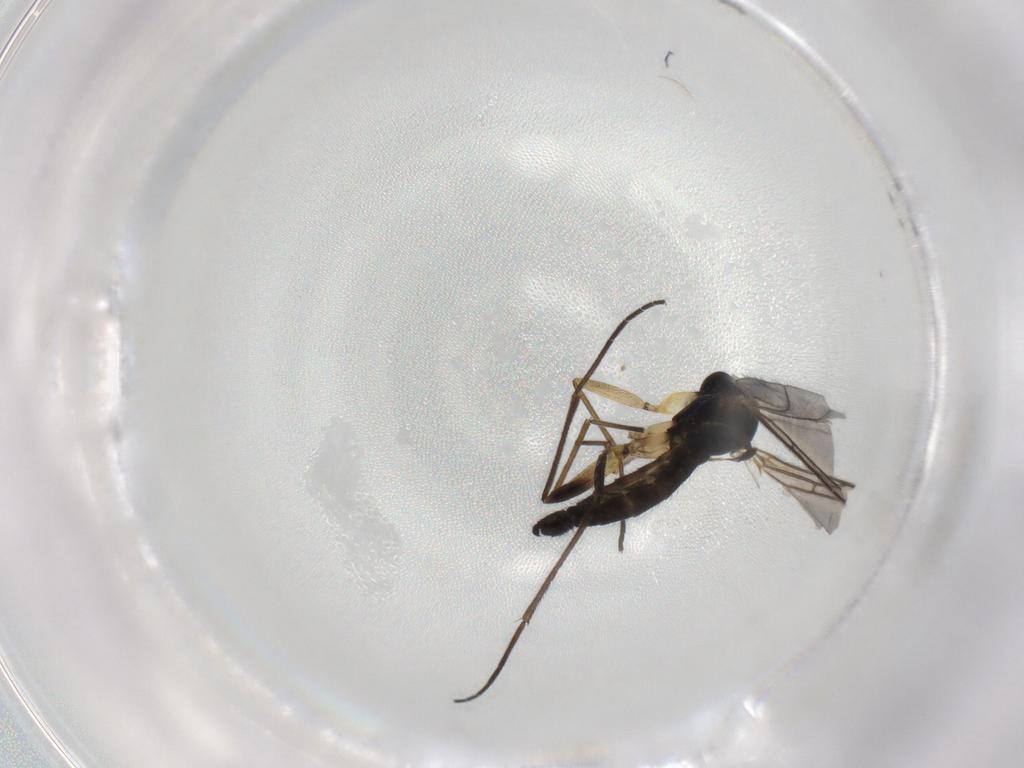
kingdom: Animalia
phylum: Arthropoda
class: Insecta
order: Diptera
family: Sciaridae
